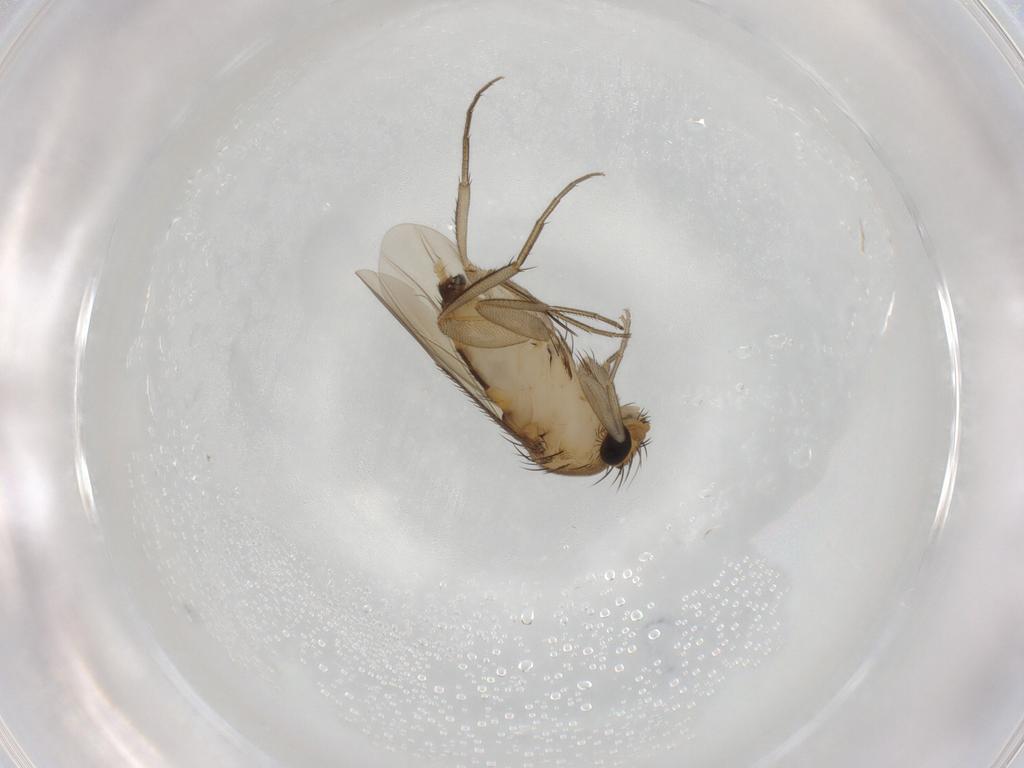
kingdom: Animalia
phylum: Arthropoda
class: Insecta
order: Diptera
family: Phoridae
